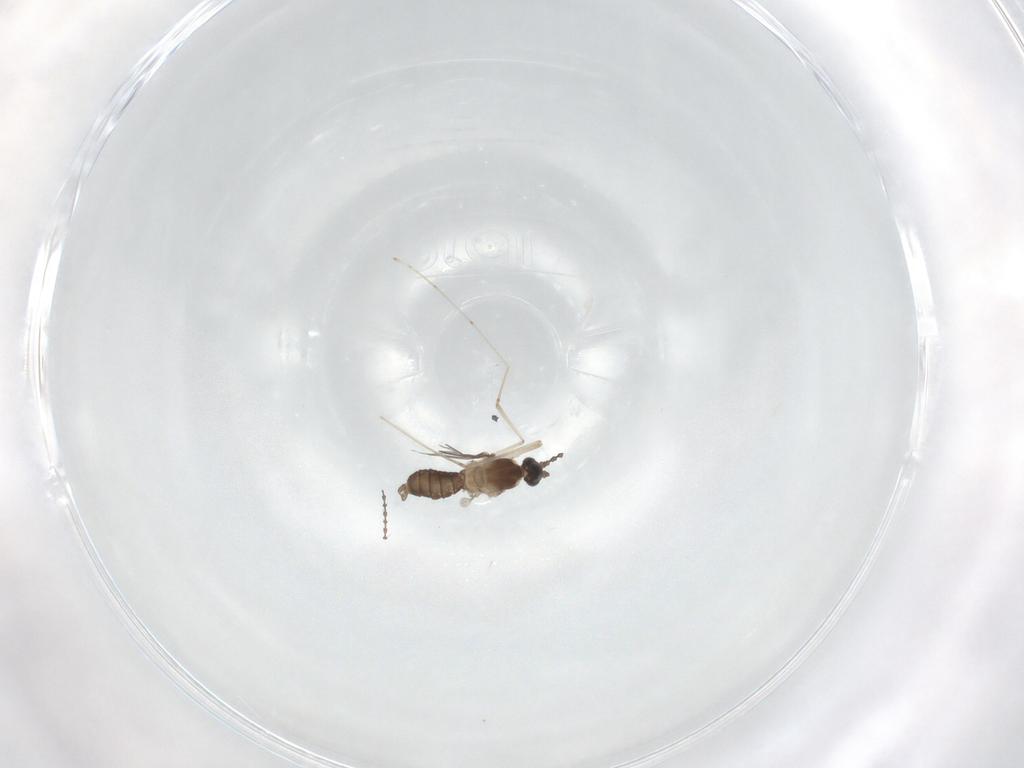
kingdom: Animalia
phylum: Arthropoda
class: Insecta
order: Diptera
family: Cecidomyiidae
